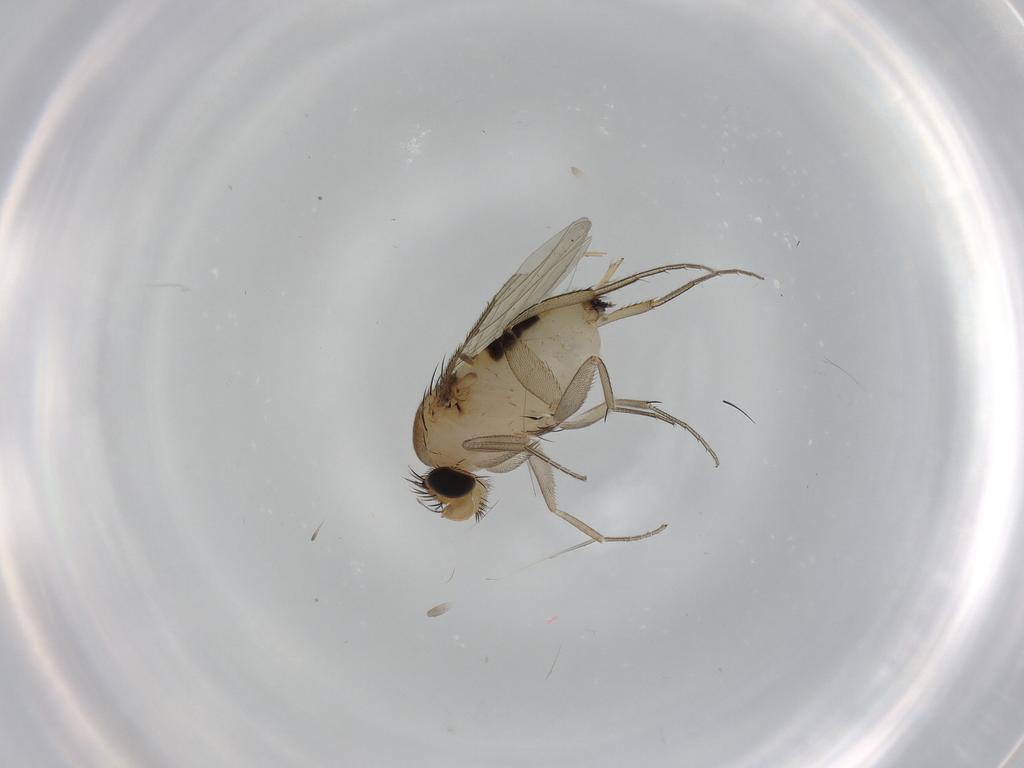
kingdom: Animalia
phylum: Arthropoda
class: Insecta
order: Diptera
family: Phoridae
